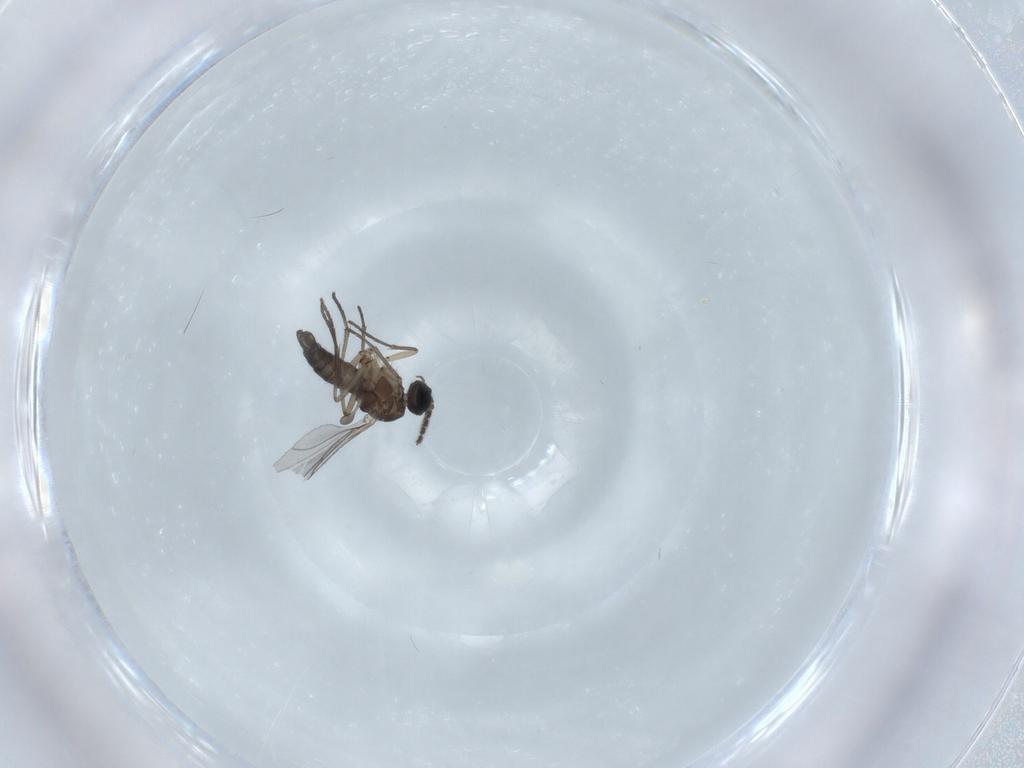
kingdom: Animalia
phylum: Arthropoda
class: Insecta
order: Diptera
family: Sciaridae
